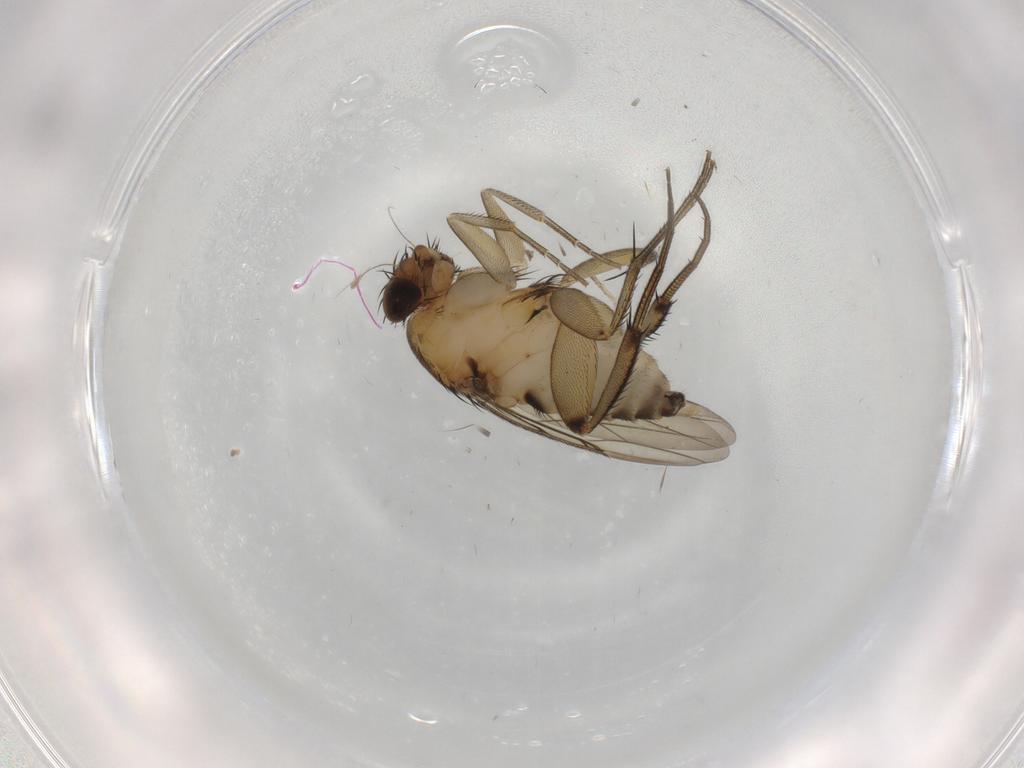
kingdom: Animalia
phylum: Arthropoda
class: Insecta
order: Diptera
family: Phoridae
